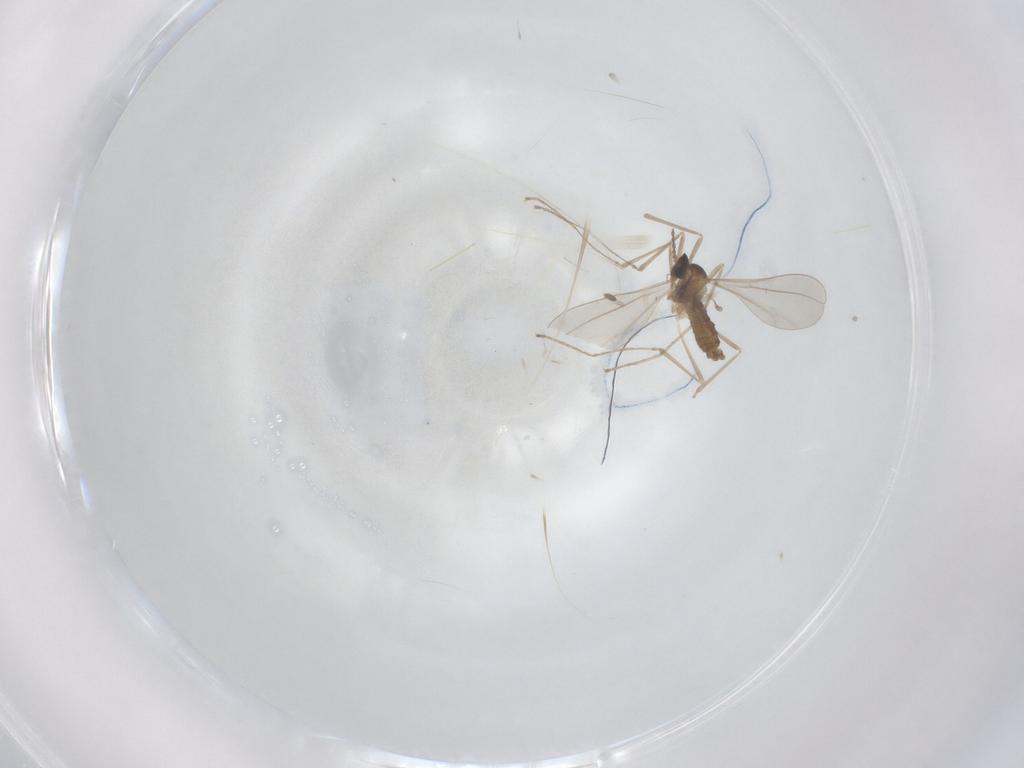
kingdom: Animalia
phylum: Arthropoda
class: Insecta
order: Diptera
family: Cecidomyiidae
